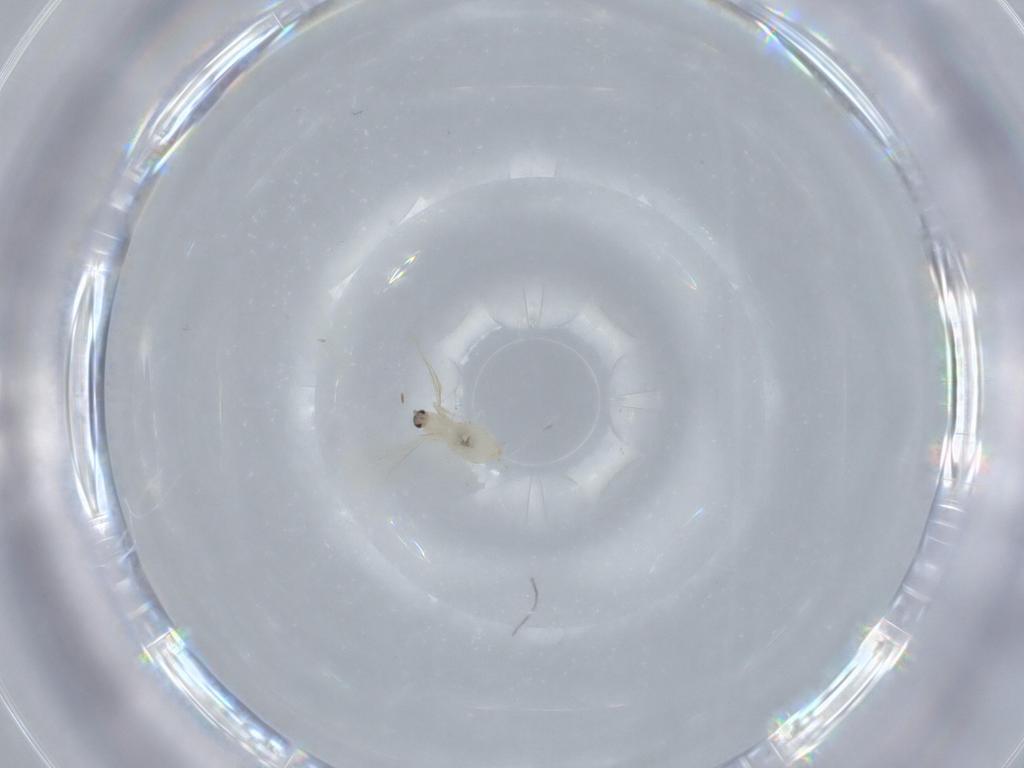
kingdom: Animalia
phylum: Arthropoda
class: Insecta
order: Diptera
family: Cecidomyiidae
